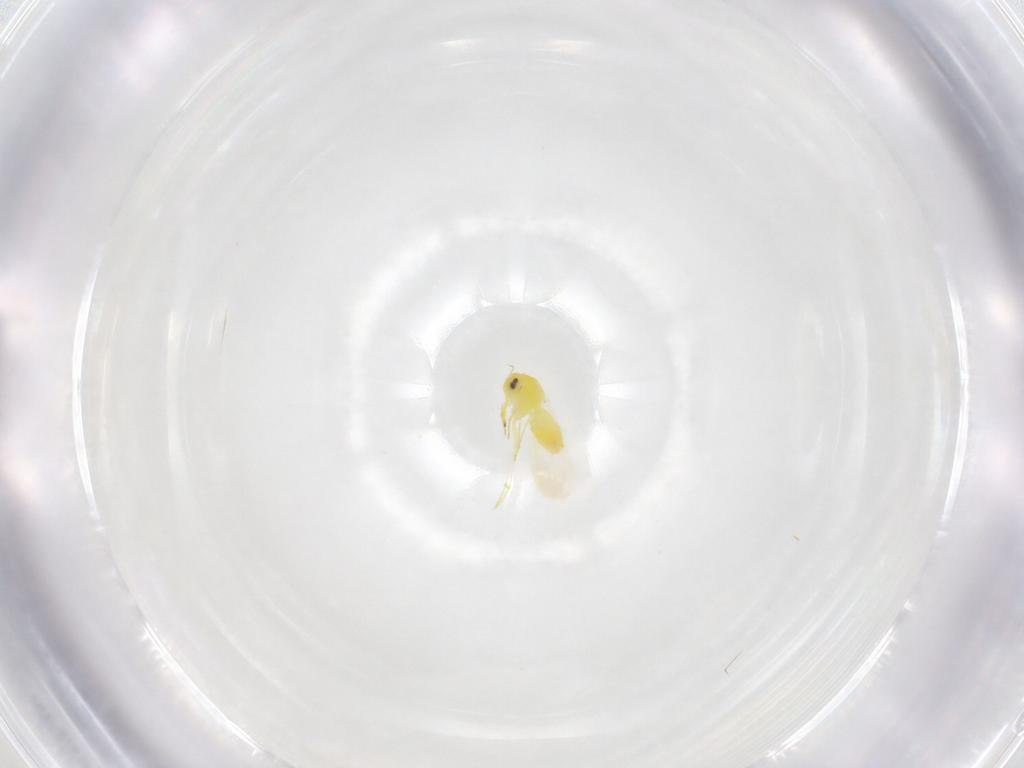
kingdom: Animalia
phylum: Arthropoda
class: Insecta
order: Hemiptera
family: Cicadellidae
